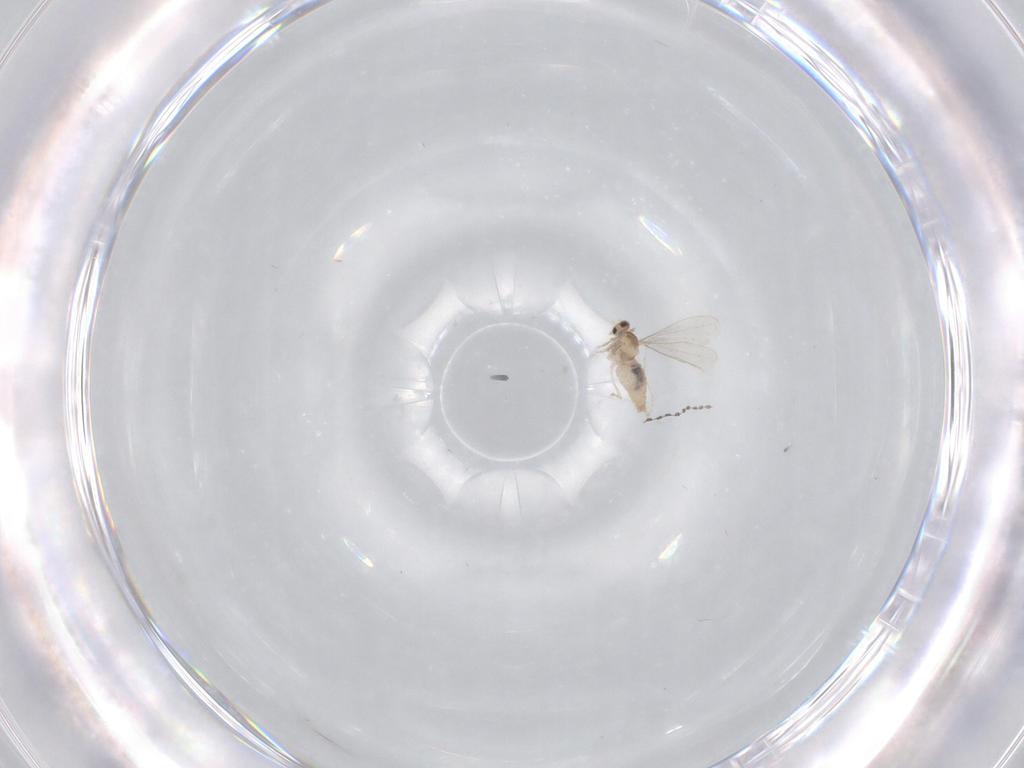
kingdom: Animalia
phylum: Arthropoda
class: Insecta
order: Diptera
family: Cecidomyiidae
